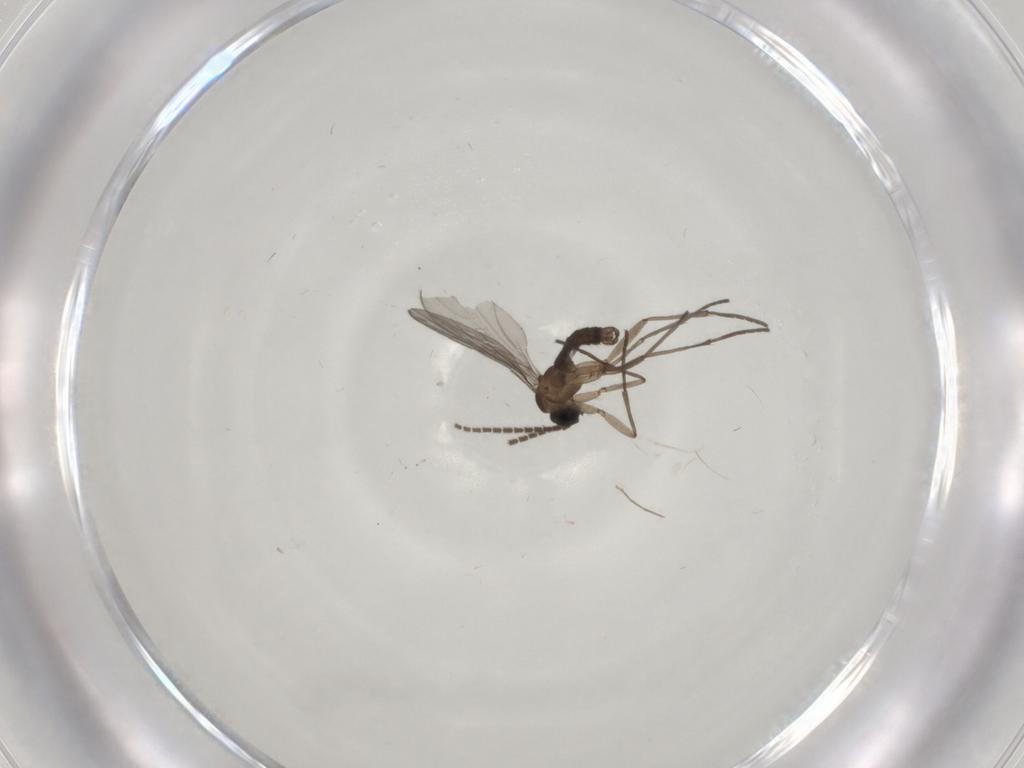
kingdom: Animalia
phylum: Arthropoda
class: Insecta
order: Diptera
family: Sciaridae
